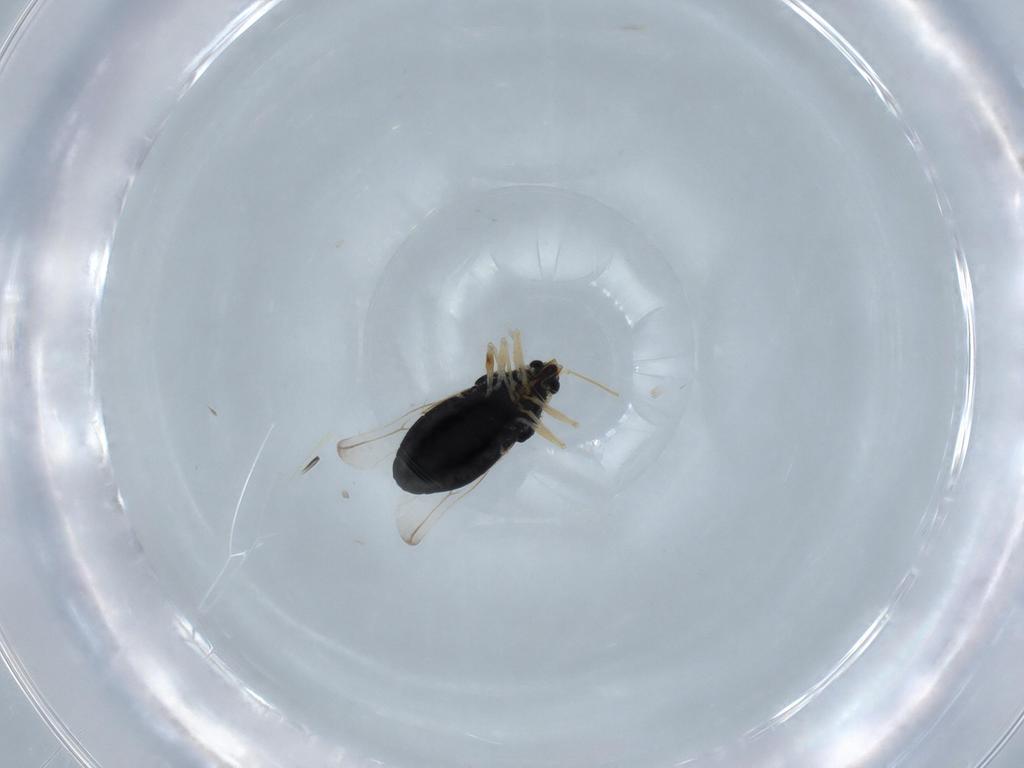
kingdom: Animalia
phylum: Arthropoda
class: Insecta
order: Hemiptera
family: Tingidae
